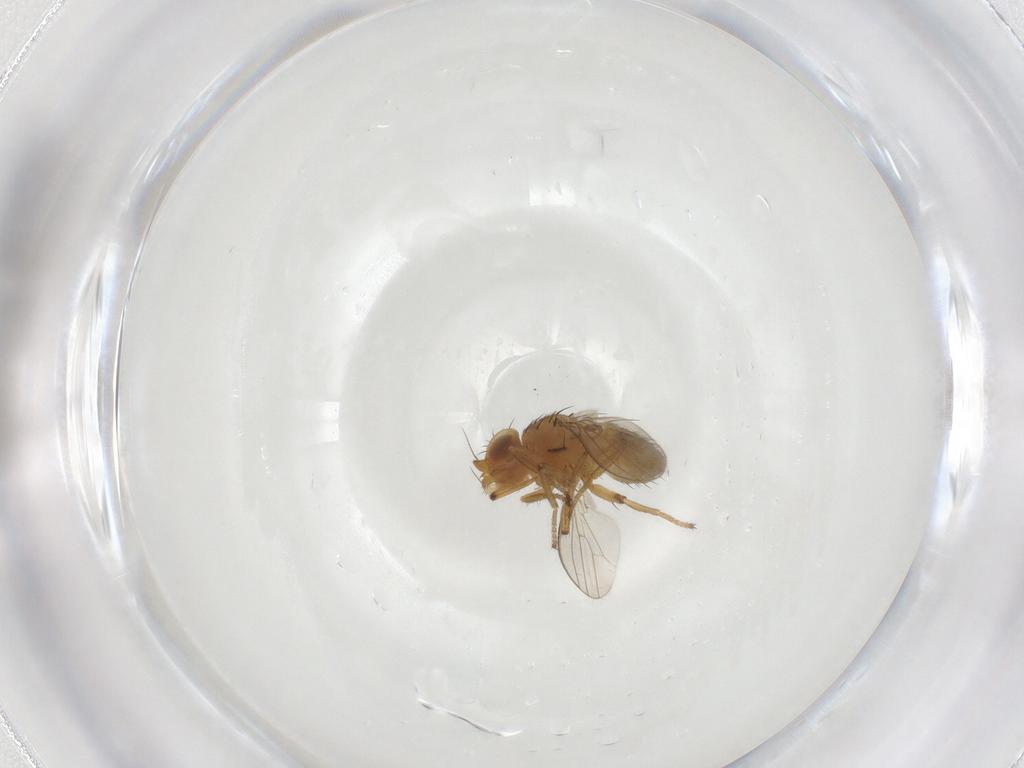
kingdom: Animalia
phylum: Arthropoda
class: Insecta
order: Diptera
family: Scatopsidae
